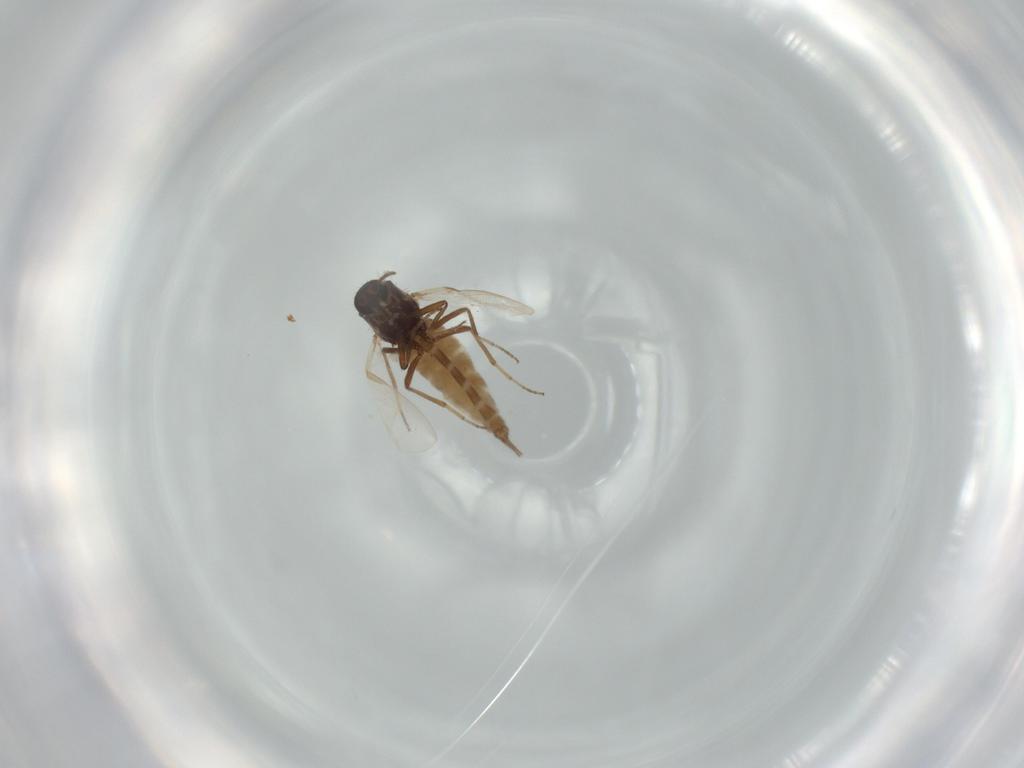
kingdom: Animalia
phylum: Arthropoda
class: Insecta
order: Diptera
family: Ceratopogonidae
